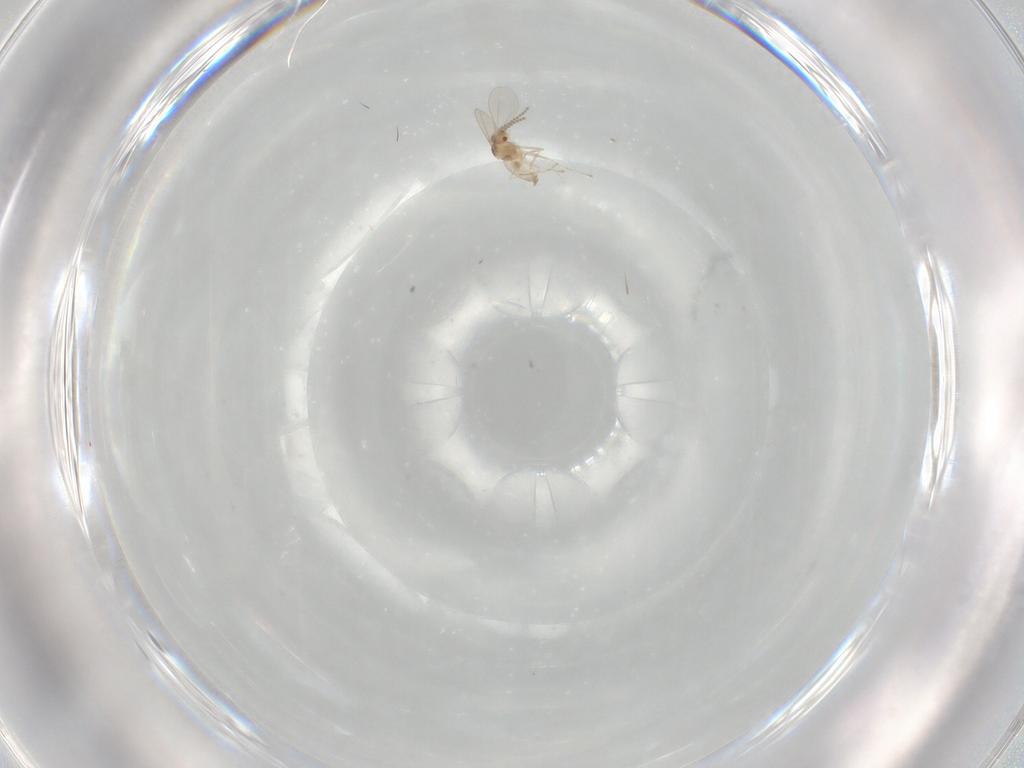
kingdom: Animalia
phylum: Arthropoda
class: Insecta
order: Diptera
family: Cecidomyiidae
